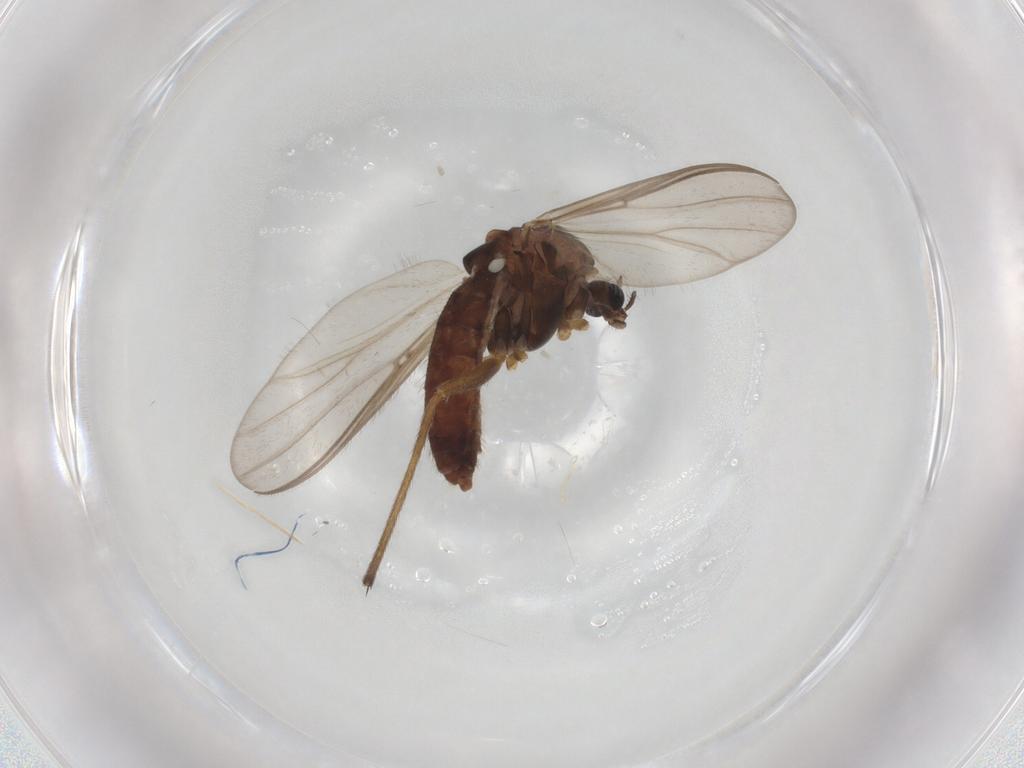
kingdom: Animalia
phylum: Arthropoda
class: Insecta
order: Diptera
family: Chironomidae
